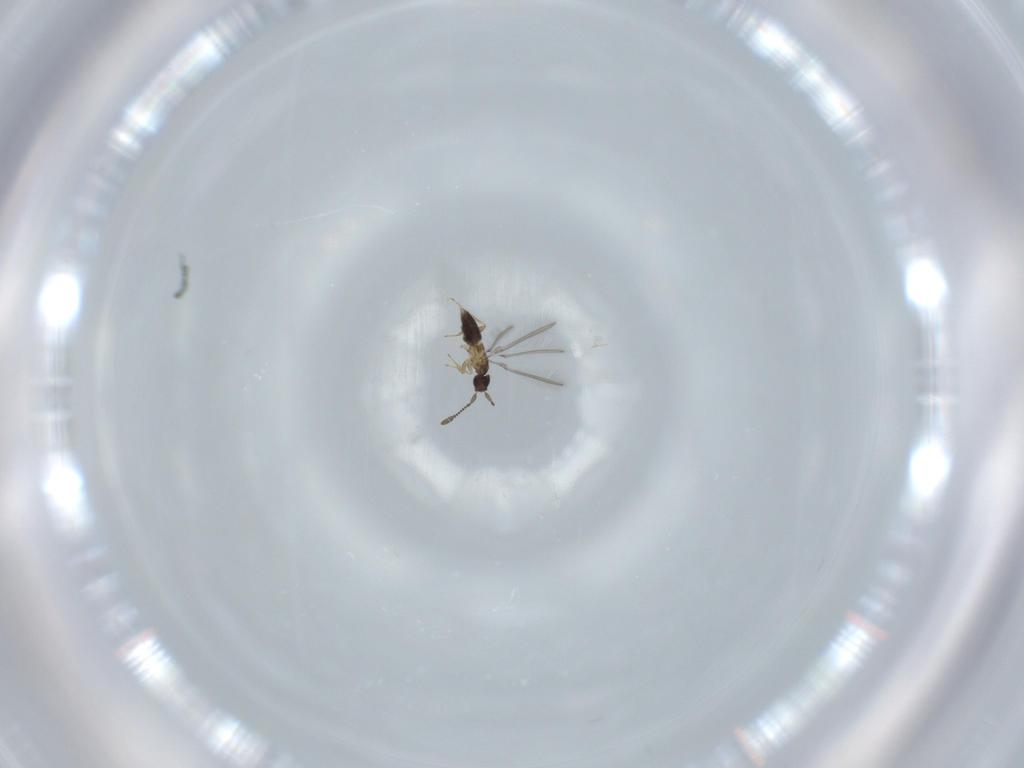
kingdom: Animalia
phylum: Arthropoda
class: Insecta
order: Hymenoptera
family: Mymaridae
